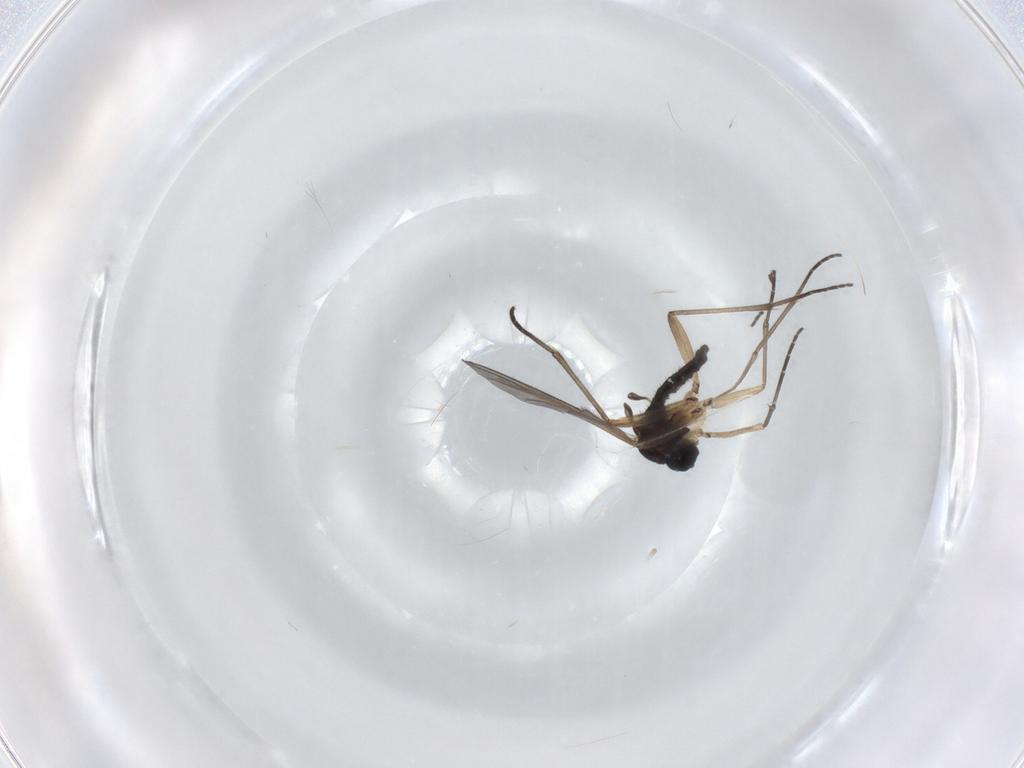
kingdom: Animalia
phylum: Arthropoda
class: Insecta
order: Diptera
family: Sciaridae
